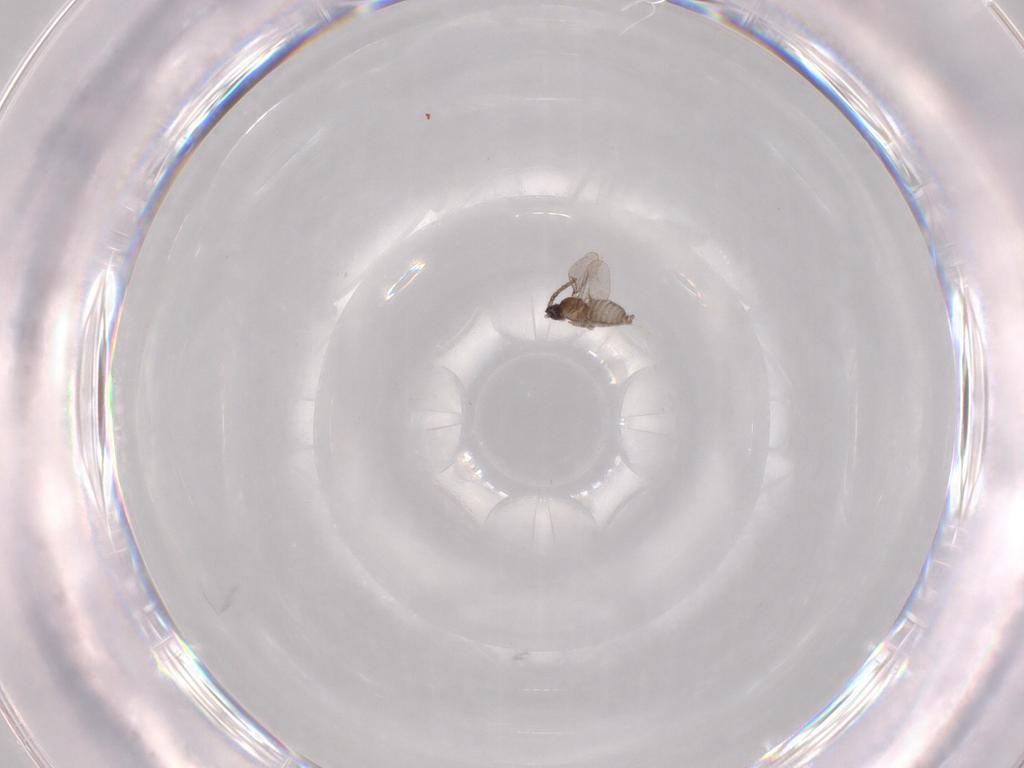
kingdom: Animalia
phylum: Arthropoda
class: Insecta
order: Diptera
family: Cecidomyiidae
